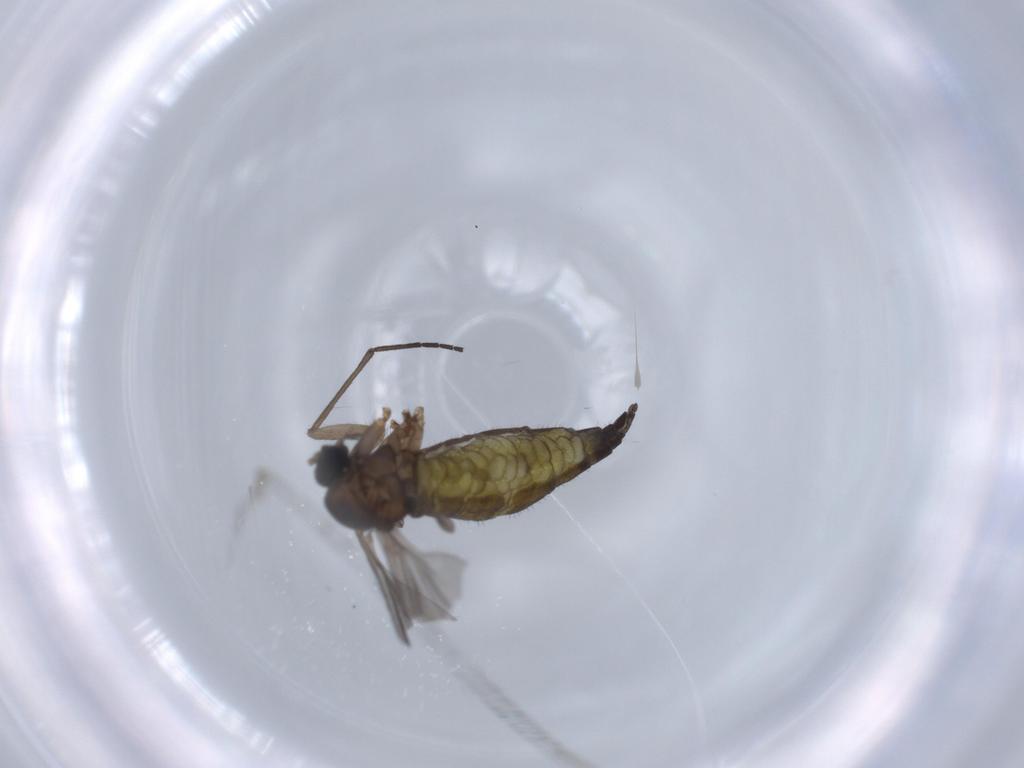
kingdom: Animalia
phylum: Arthropoda
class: Insecta
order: Diptera
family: Sciaridae
